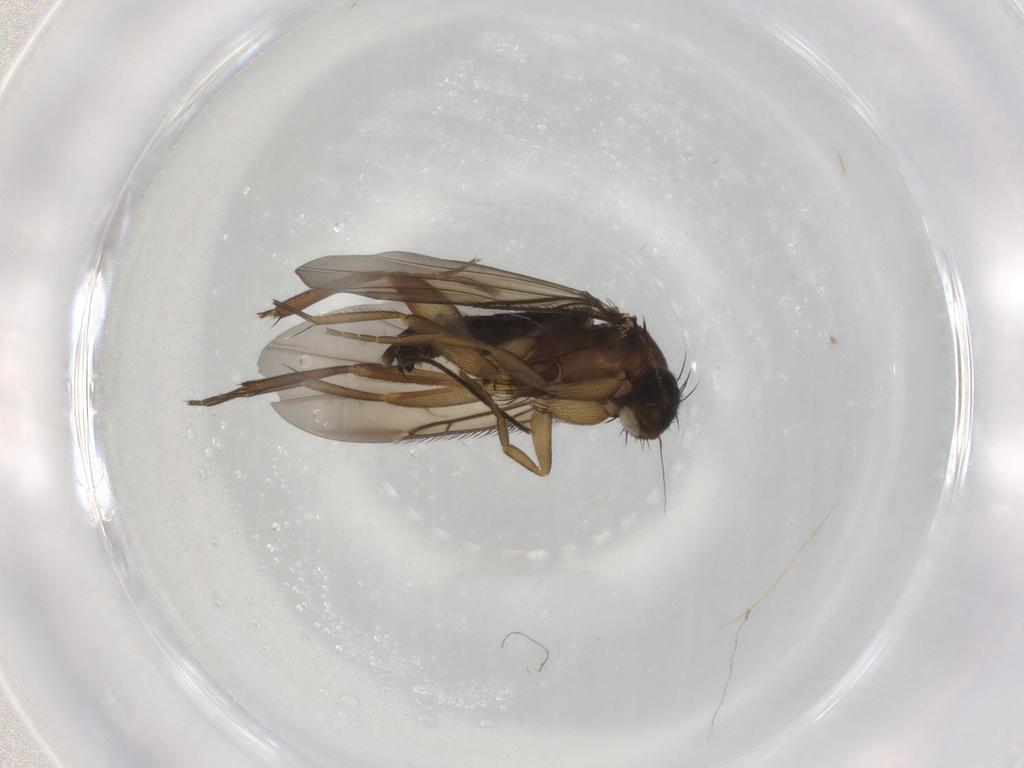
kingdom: Animalia
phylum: Arthropoda
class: Insecta
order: Diptera
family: Phoridae
